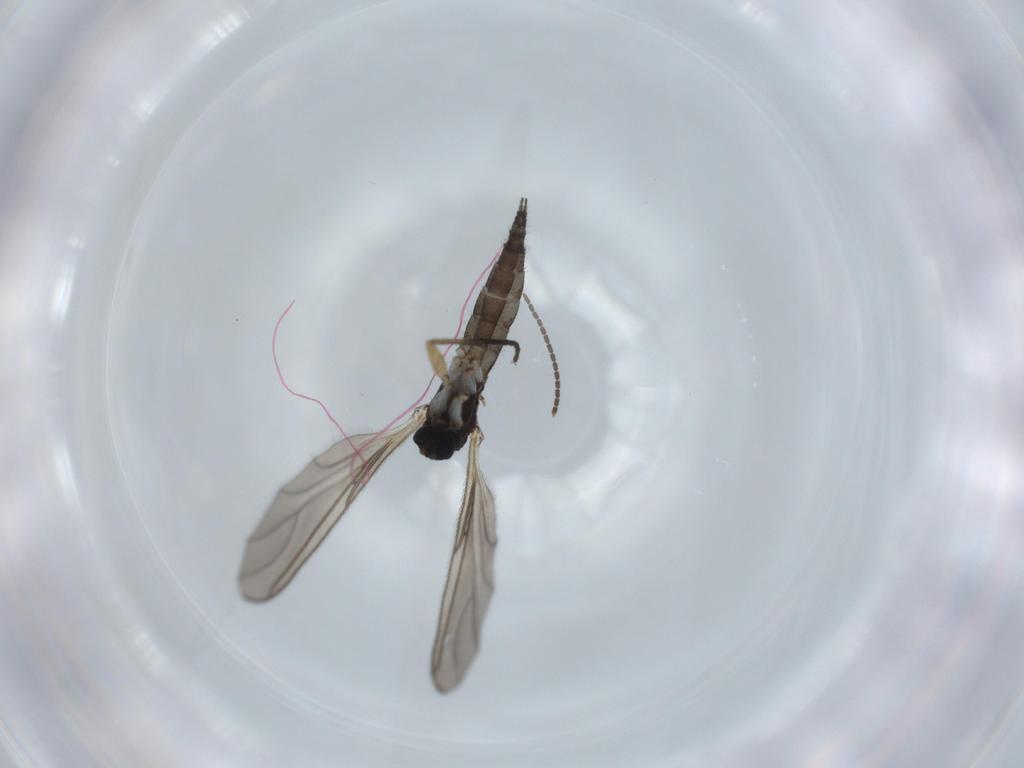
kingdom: Animalia
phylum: Arthropoda
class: Insecta
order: Diptera
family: Sciaridae
